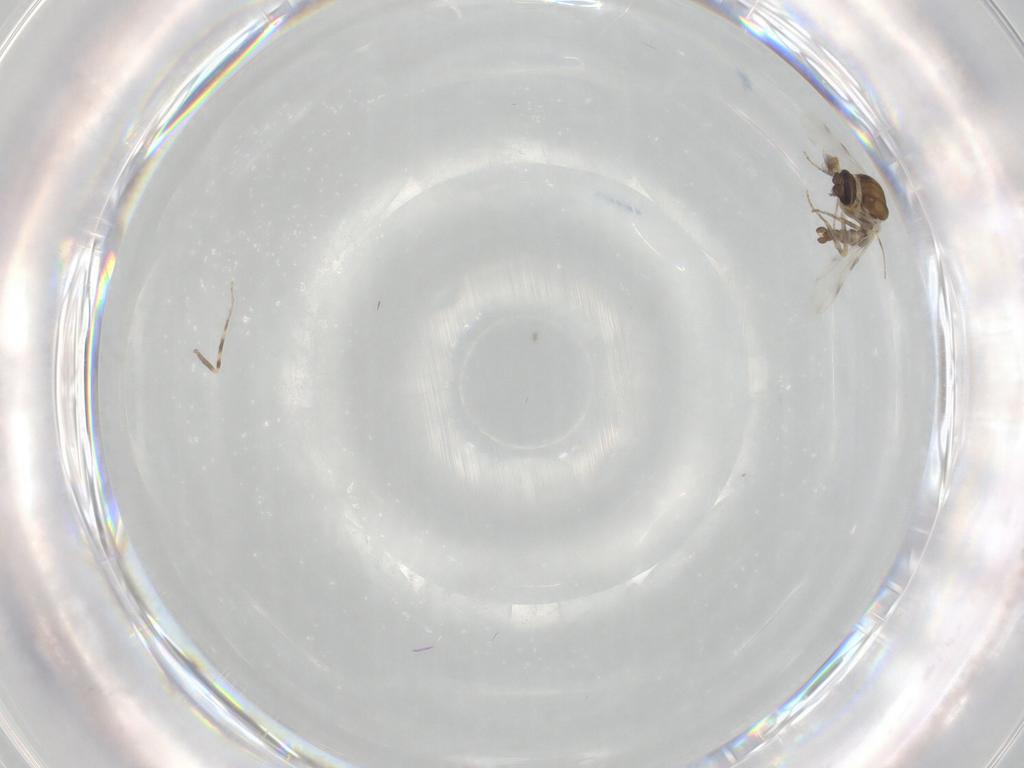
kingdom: Animalia
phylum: Arthropoda
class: Insecta
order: Diptera
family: Ceratopogonidae
